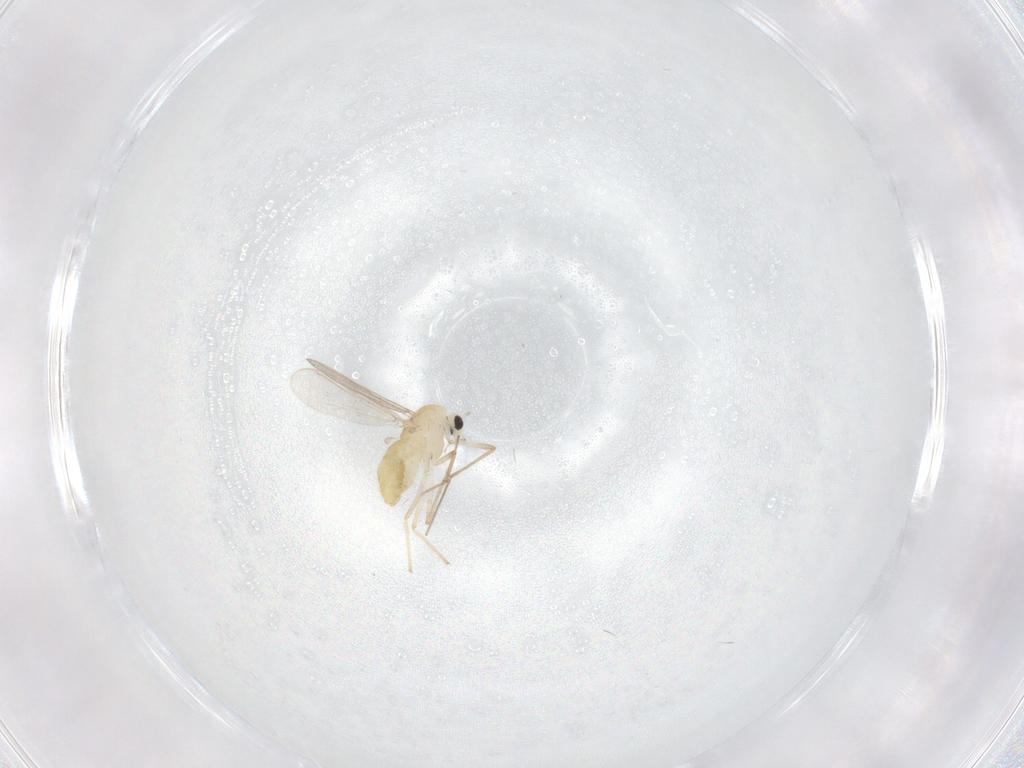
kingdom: Animalia
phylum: Arthropoda
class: Insecta
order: Diptera
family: Chironomidae
